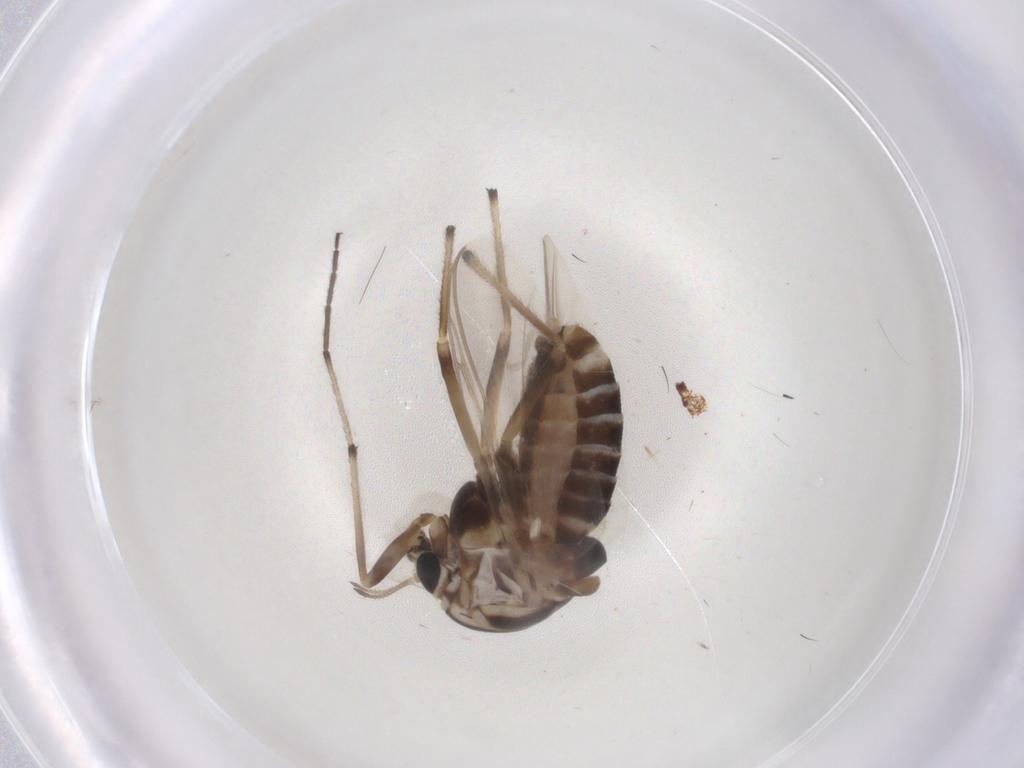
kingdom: Animalia
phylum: Arthropoda
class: Insecta
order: Diptera
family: Chironomidae
